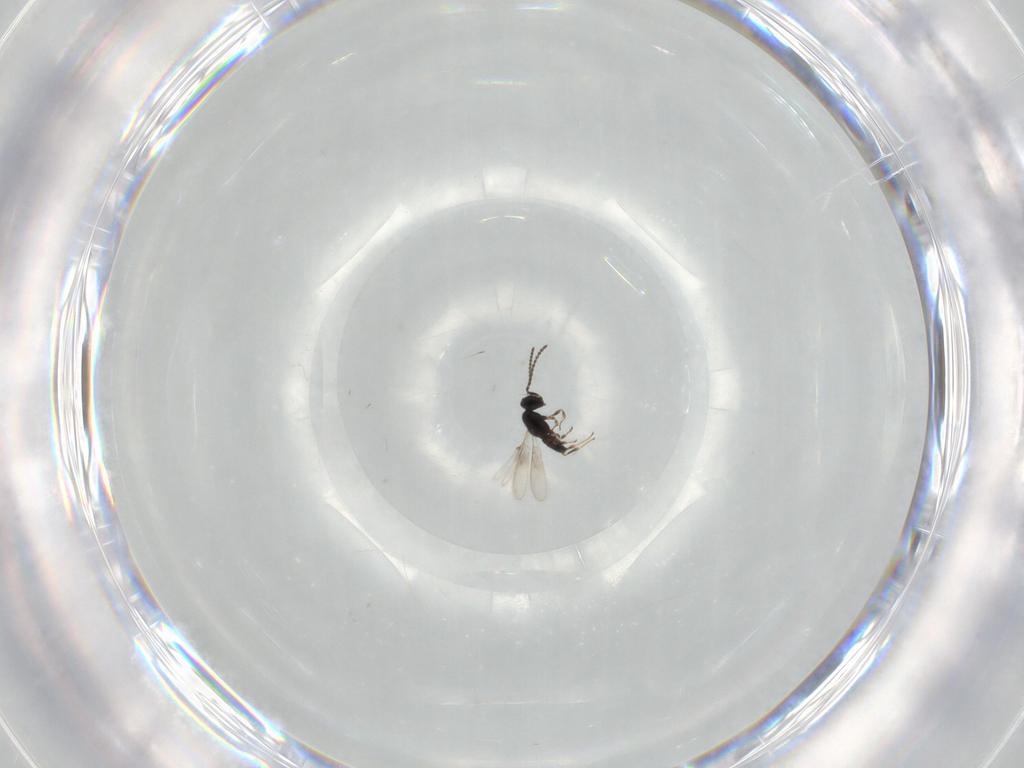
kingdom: Animalia
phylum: Arthropoda
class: Insecta
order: Hymenoptera
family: Scelionidae
